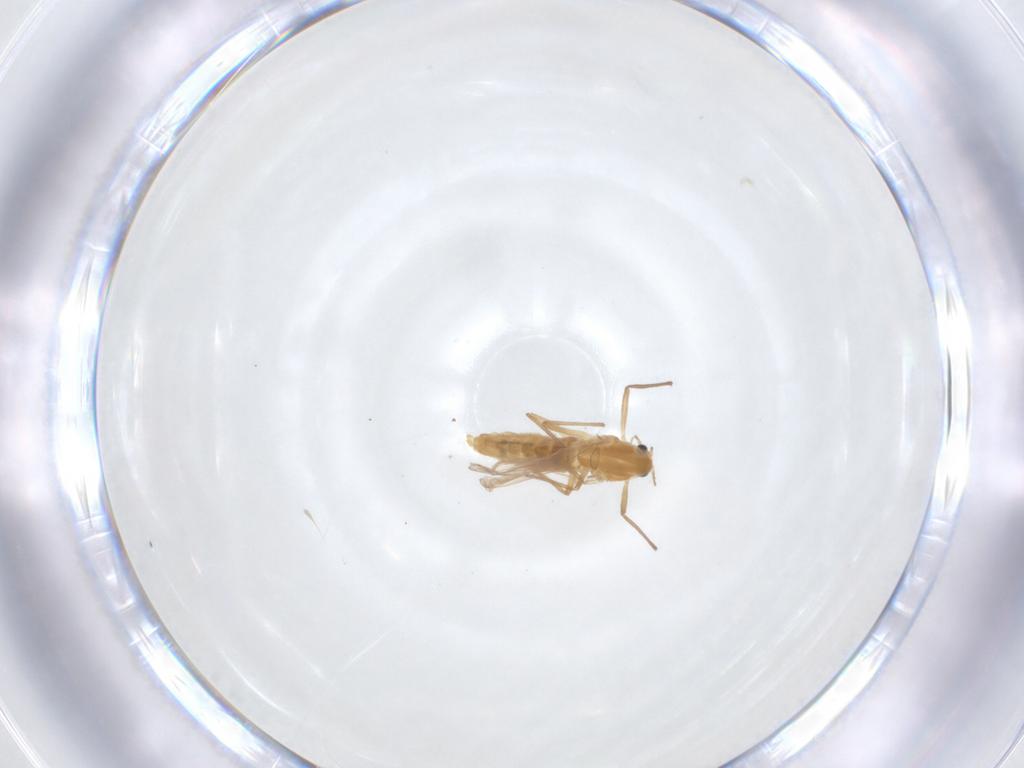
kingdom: Animalia
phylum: Arthropoda
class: Insecta
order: Diptera
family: Chironomidae
